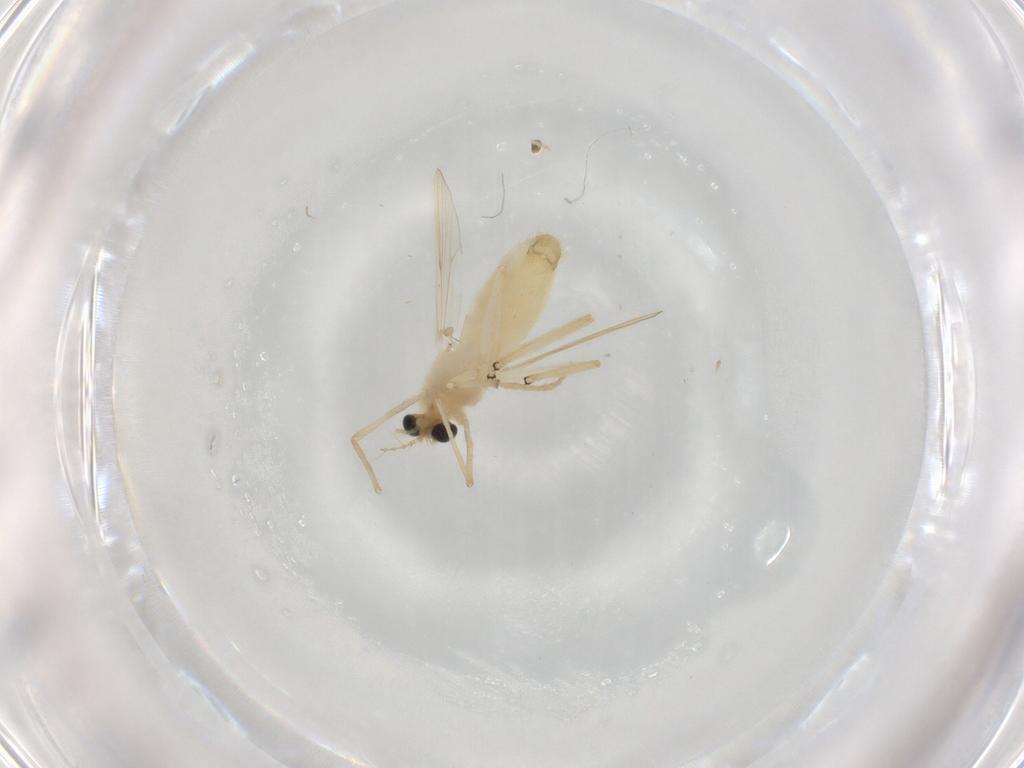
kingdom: Animalia
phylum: Arthropoda
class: Insecta
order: Diptera
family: Chironomidae
